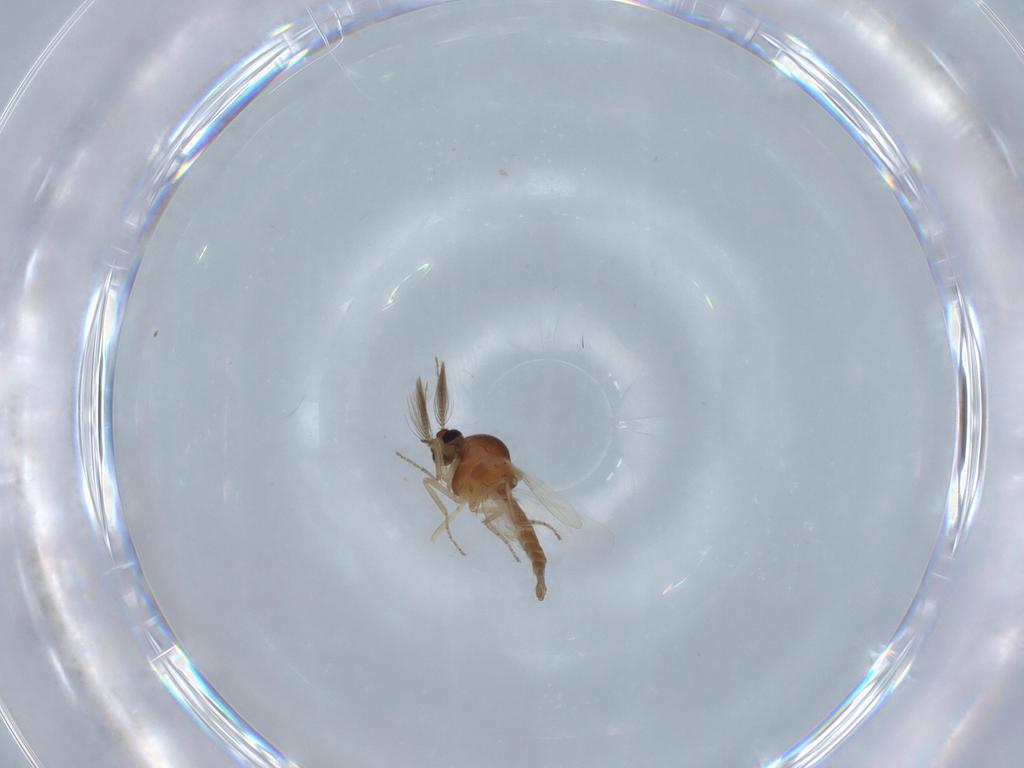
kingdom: Animalia
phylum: Arthropoda
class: Insecta
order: Diptera
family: Ceratopogonidae
